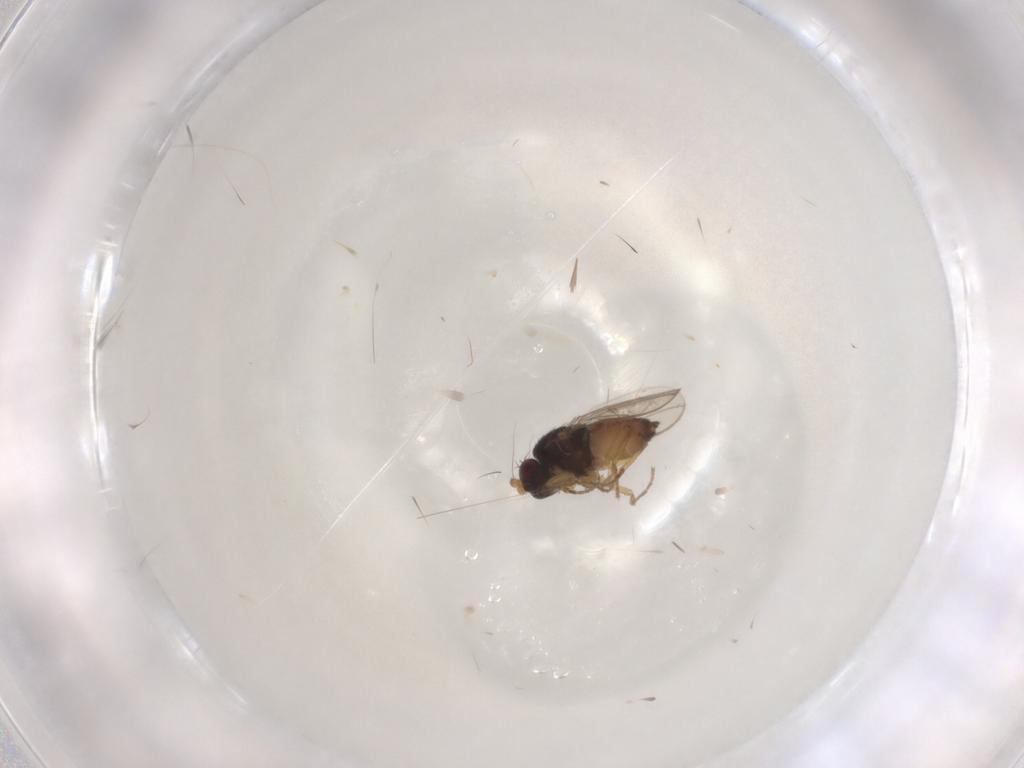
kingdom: Animalia
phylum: Arthropoda
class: Insecta
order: Diptera
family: Sphaeroceridae
